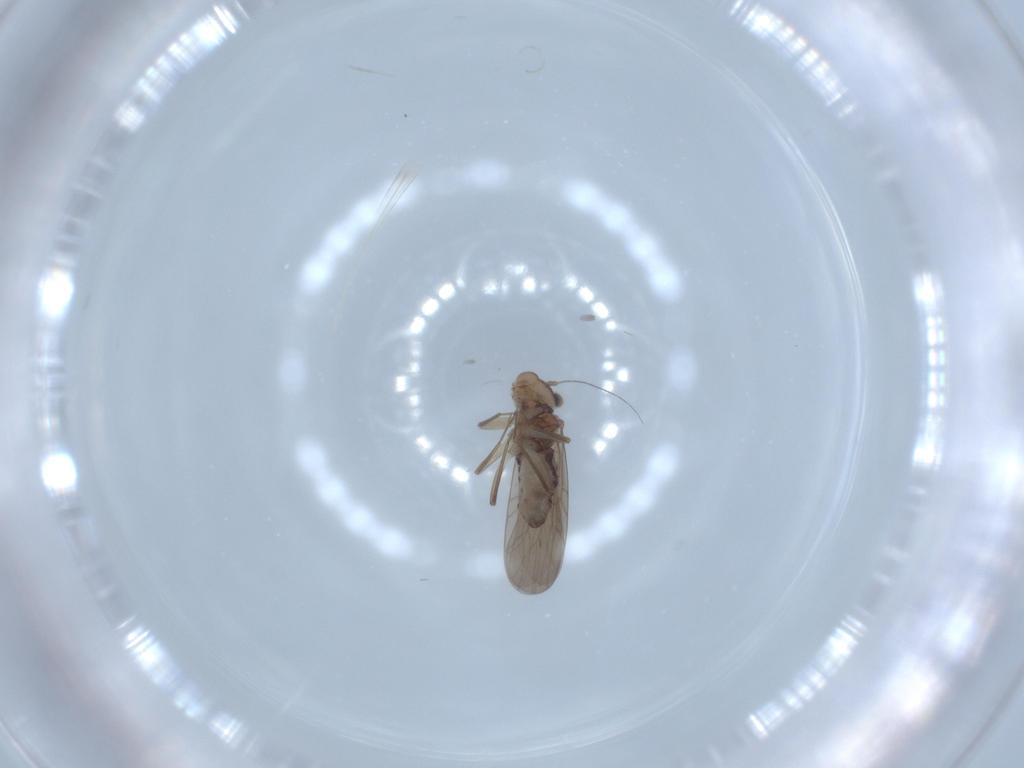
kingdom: Animalia
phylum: Arthropoda
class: Insecta
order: Psocodea
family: Lepidopsocidae
